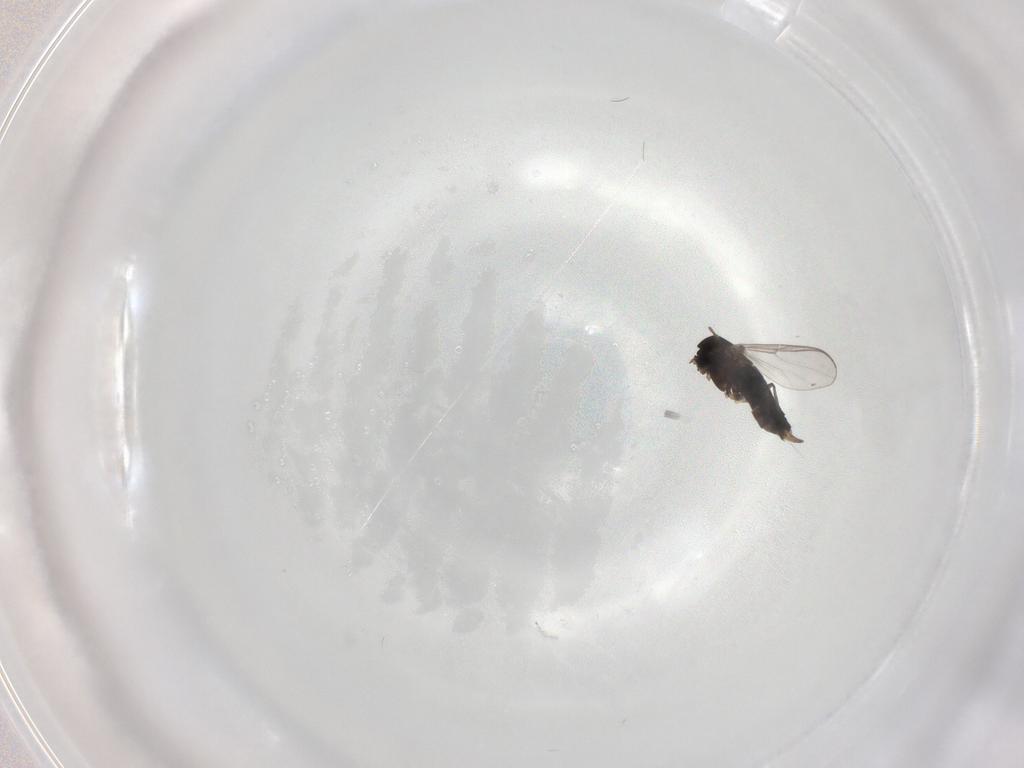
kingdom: Animalia
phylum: Arthropoda
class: Insecta
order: Diptera
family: Chironomidae
